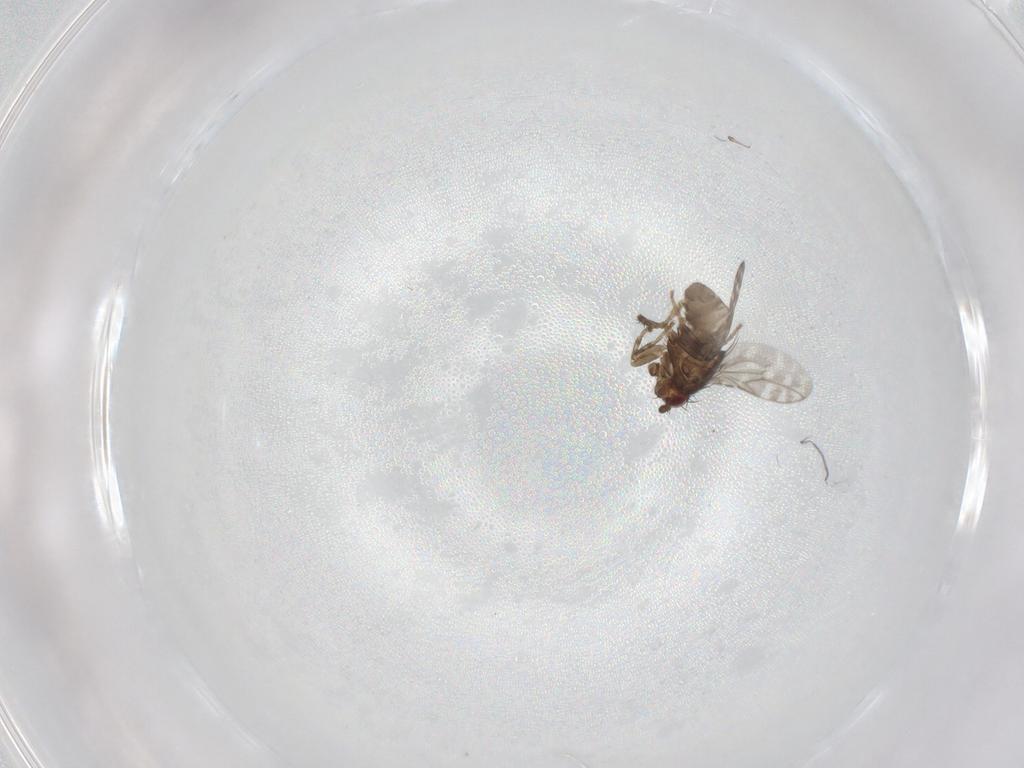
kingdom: Animalia
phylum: Arthropoda
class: Insecta
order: Diptera
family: Sphaeroceridae
